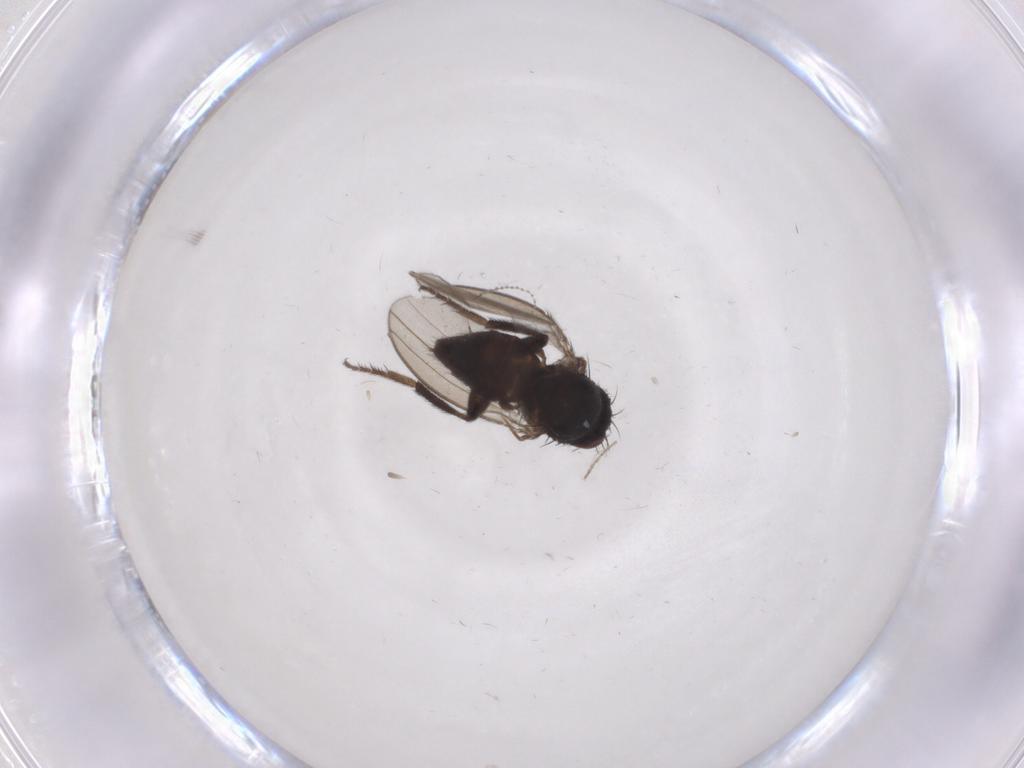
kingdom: Animalia
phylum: Arthropoda
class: Insecta
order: Diptera
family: Milichiidae
